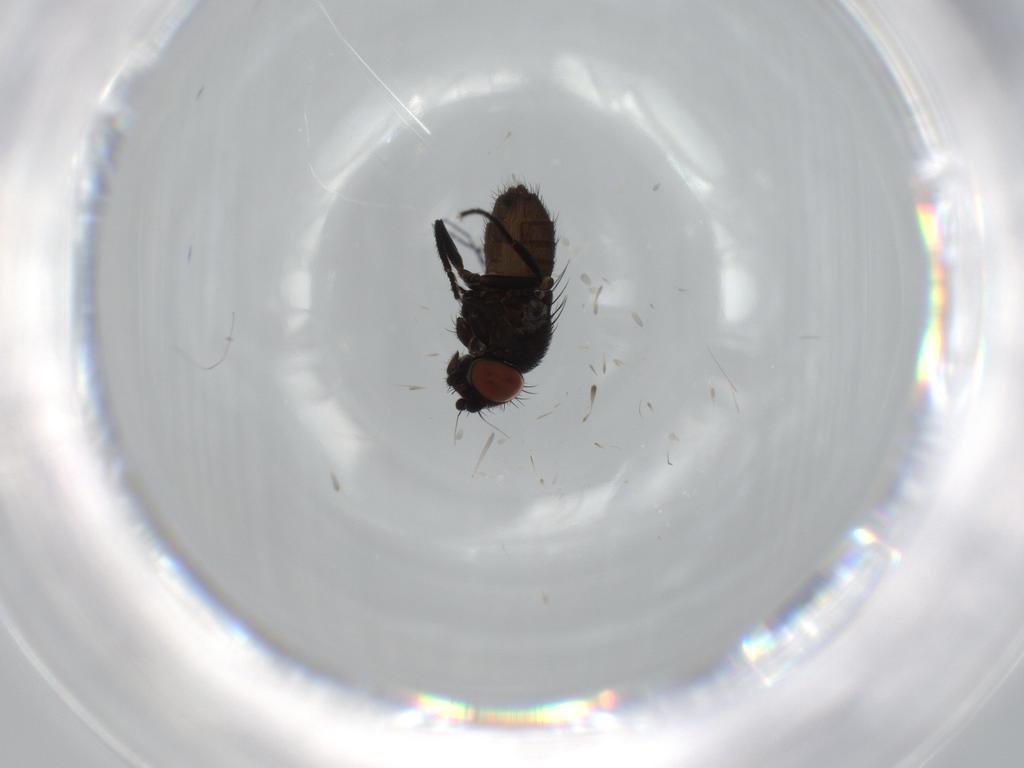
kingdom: Animalia
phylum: Arthropoda
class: Insecta
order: Diptera
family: Milichiidae
